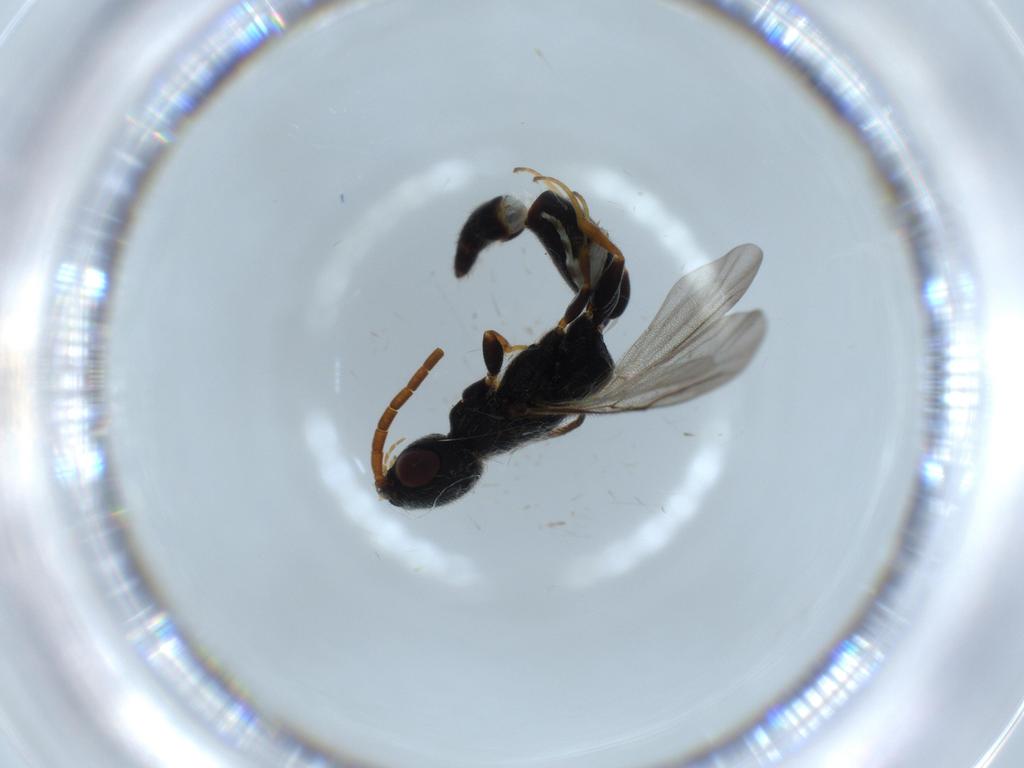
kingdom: Animalia
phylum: Arthropoda
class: Insecta
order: Hymenoptera
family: Bethylidae
